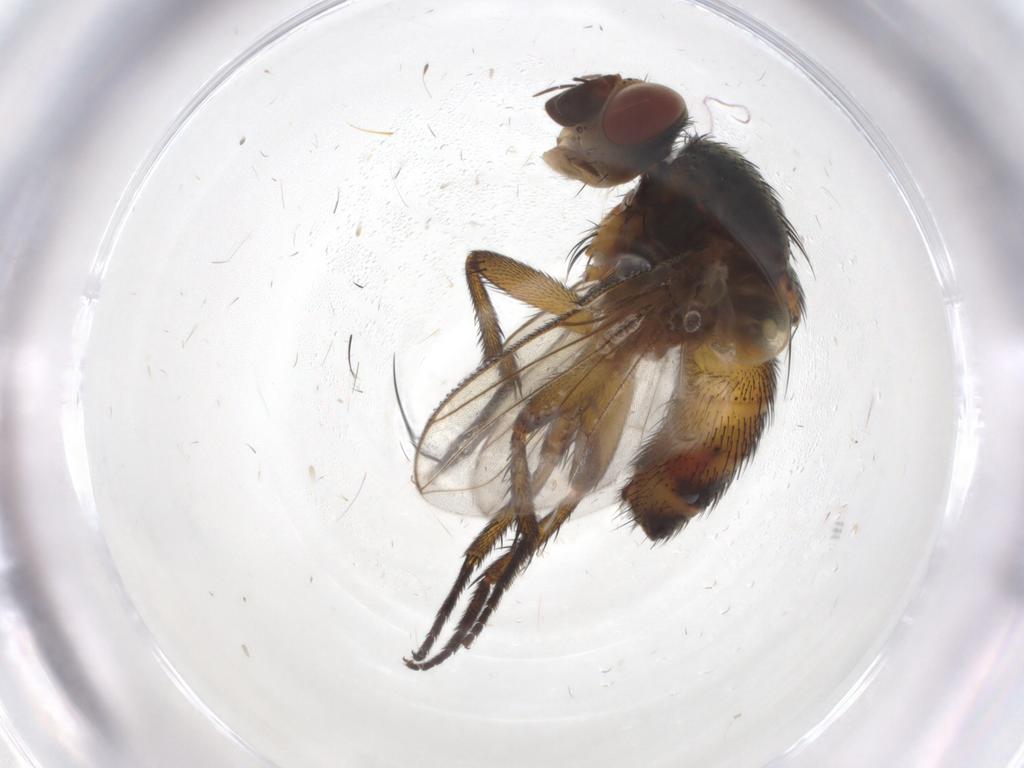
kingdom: Animalia
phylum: Arthropoda
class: Insecta
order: Diptera
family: Tachinidae
